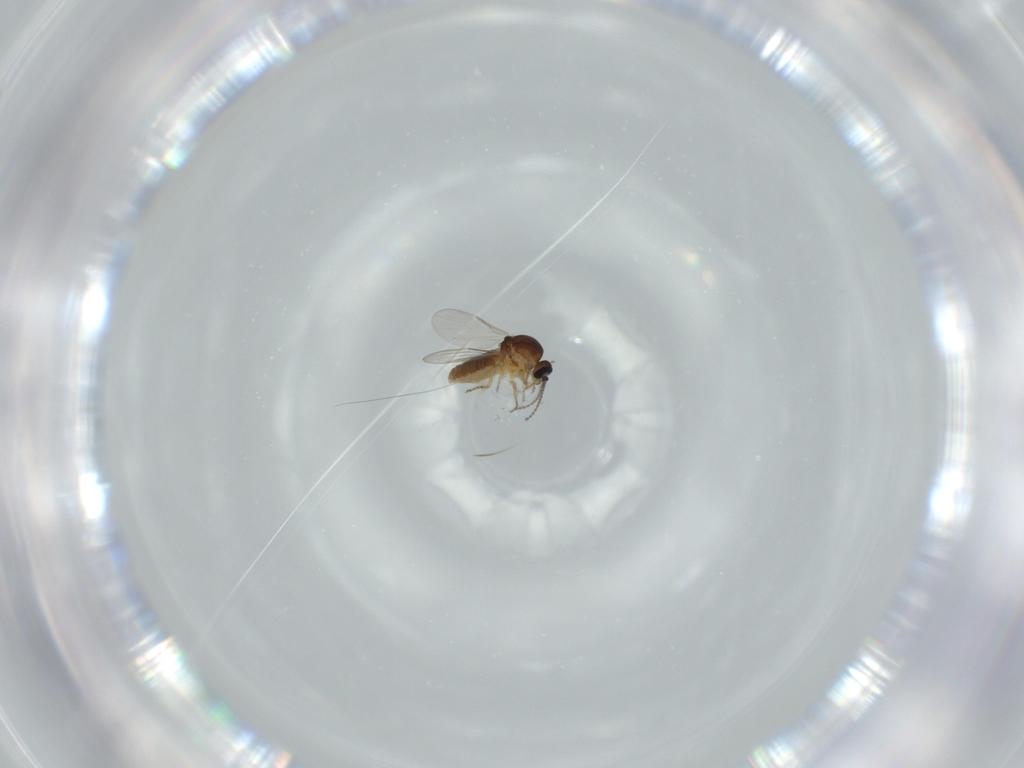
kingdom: Animalia
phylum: Arthropoda
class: Insecta
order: Diptera
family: Ceratopogonidae
